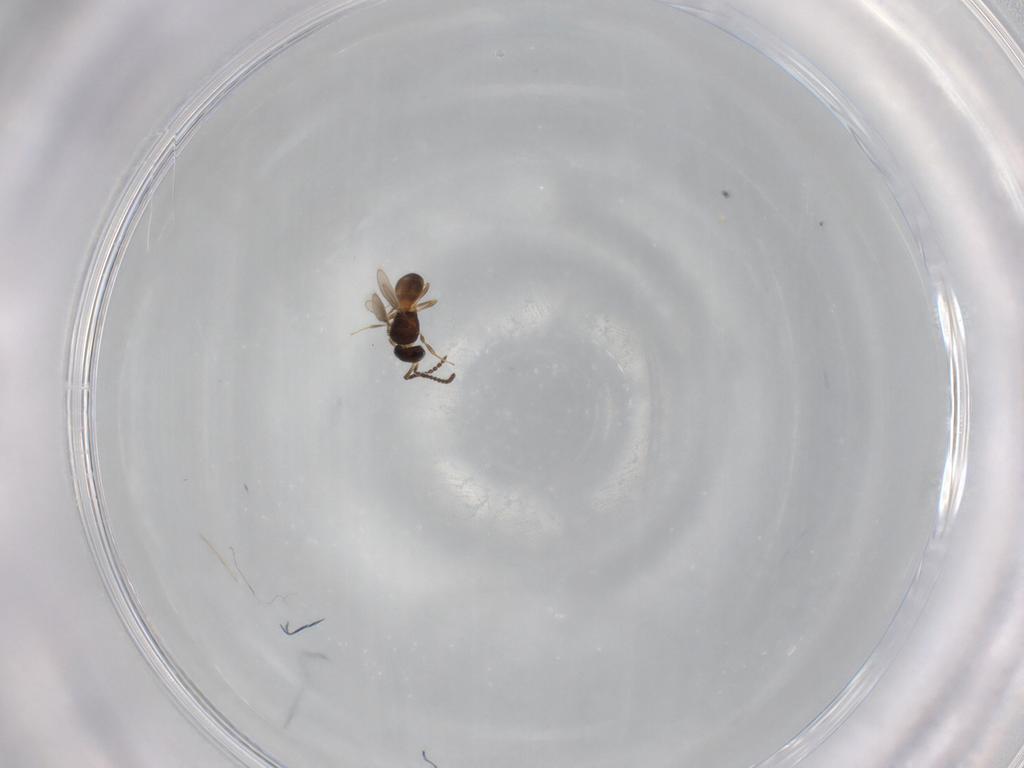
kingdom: Animalia
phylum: Arthropoda
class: Insecta
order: Hymenoptera
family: Scelionidae
